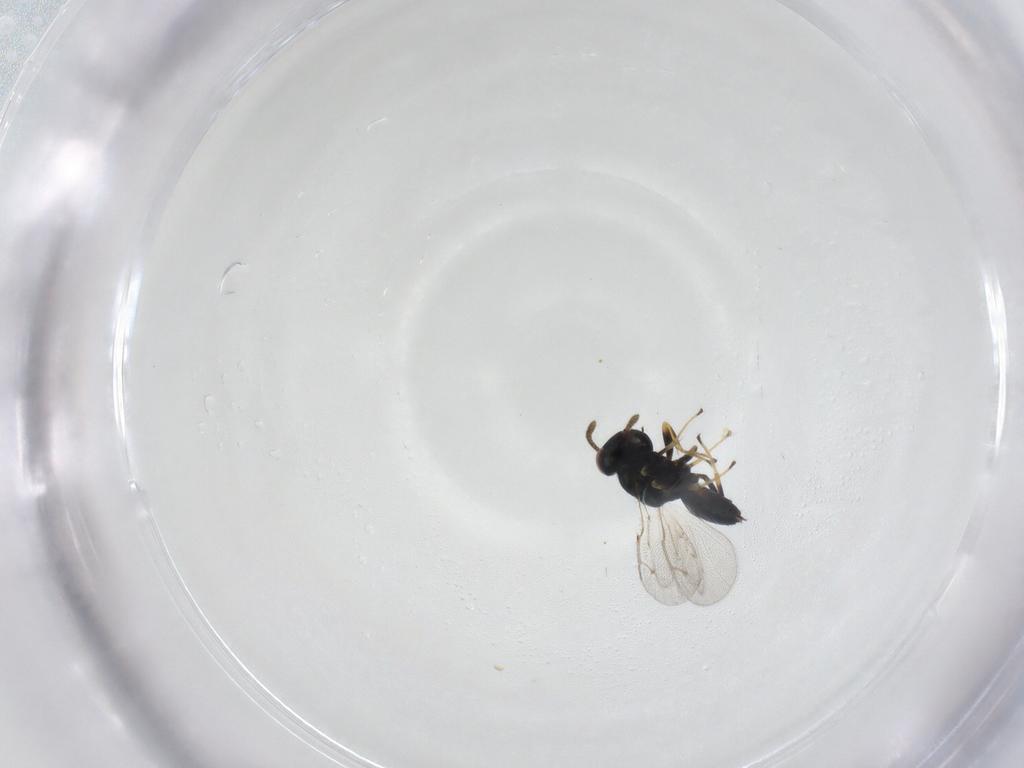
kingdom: Animalia
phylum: Arthropoda
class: Insecta
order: Hymenoptera
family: Pteromalidae
